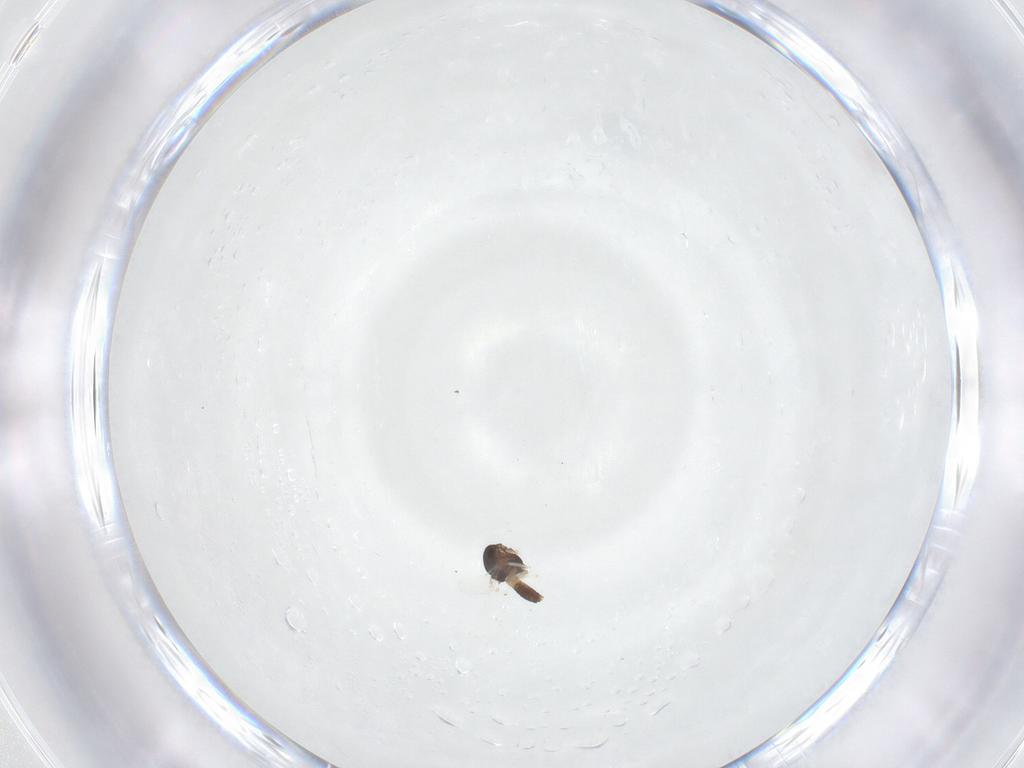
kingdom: Animalia
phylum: Arthropoda
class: Insecta
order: Diptera
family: Chironomidae
